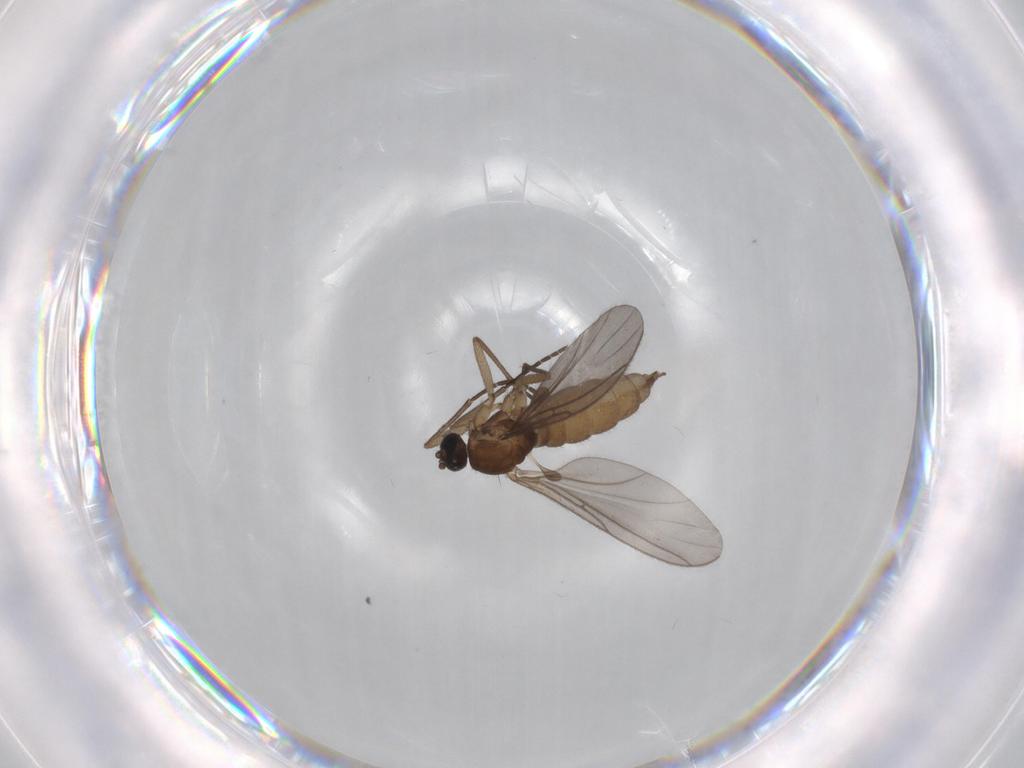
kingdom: Animalia
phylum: Arthropoda
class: Insecta
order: Diptera
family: Sciaridae
